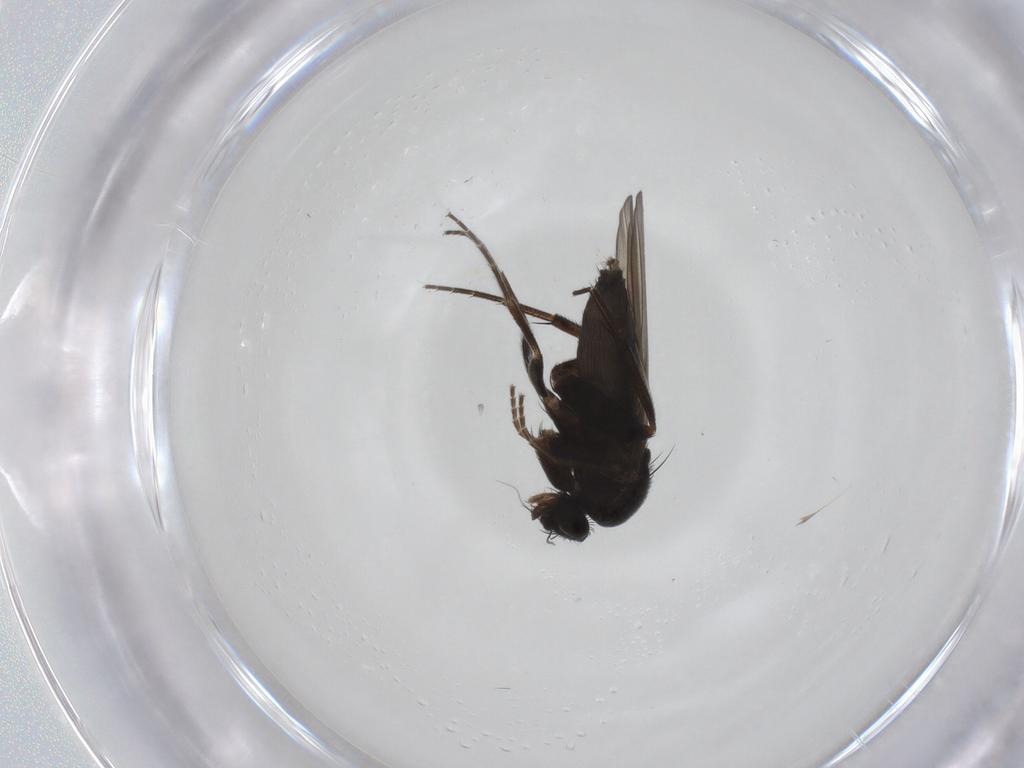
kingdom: Animalia
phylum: Arthropoda
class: Insecta
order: Diptera
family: Phoridae
